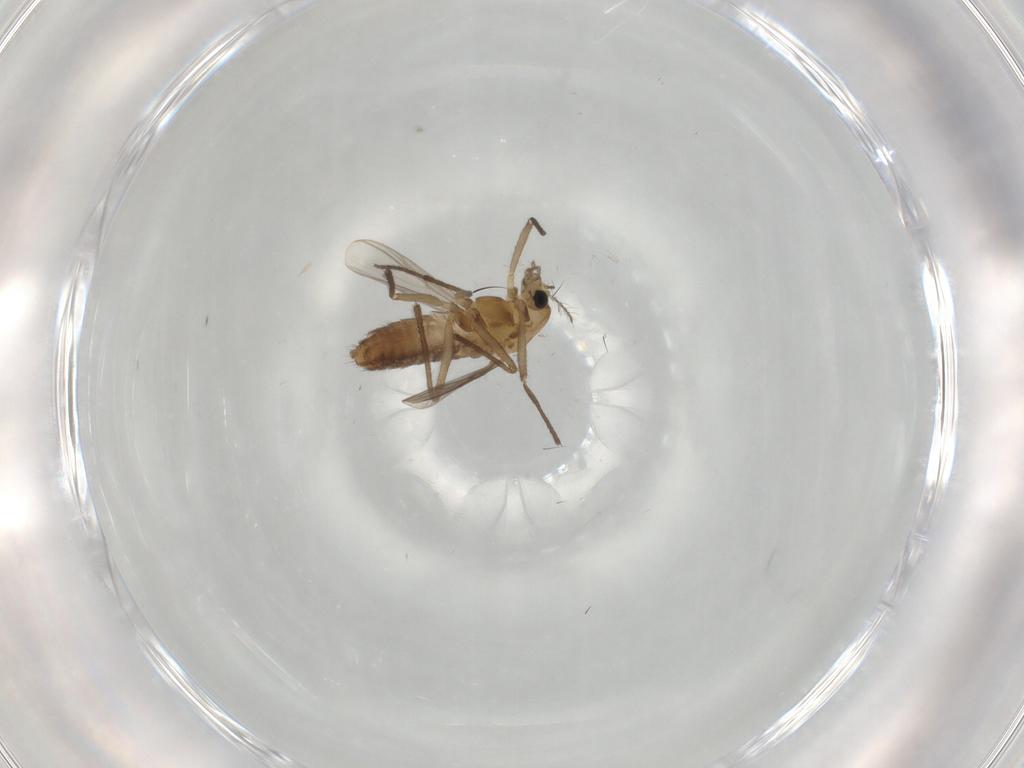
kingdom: Animalia
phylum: Arthropoda
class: Insecta
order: Diptera
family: Chironomidae
